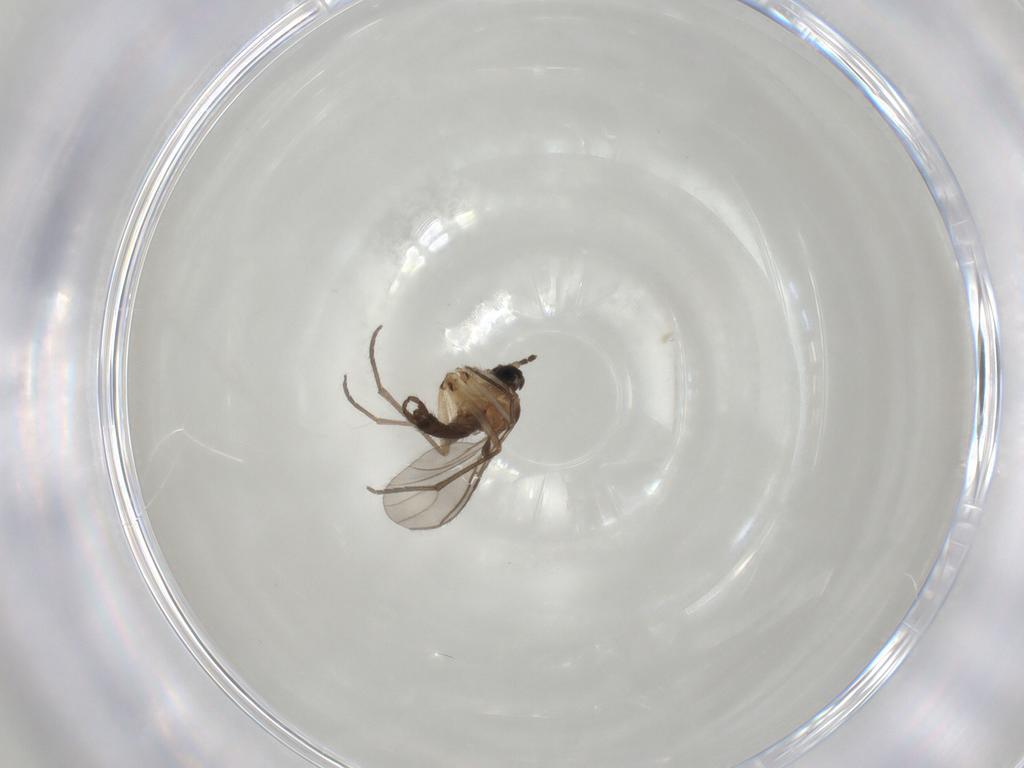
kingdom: Animalia
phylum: Arthropoda
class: Insecta
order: Diptera
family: Sciaridae
